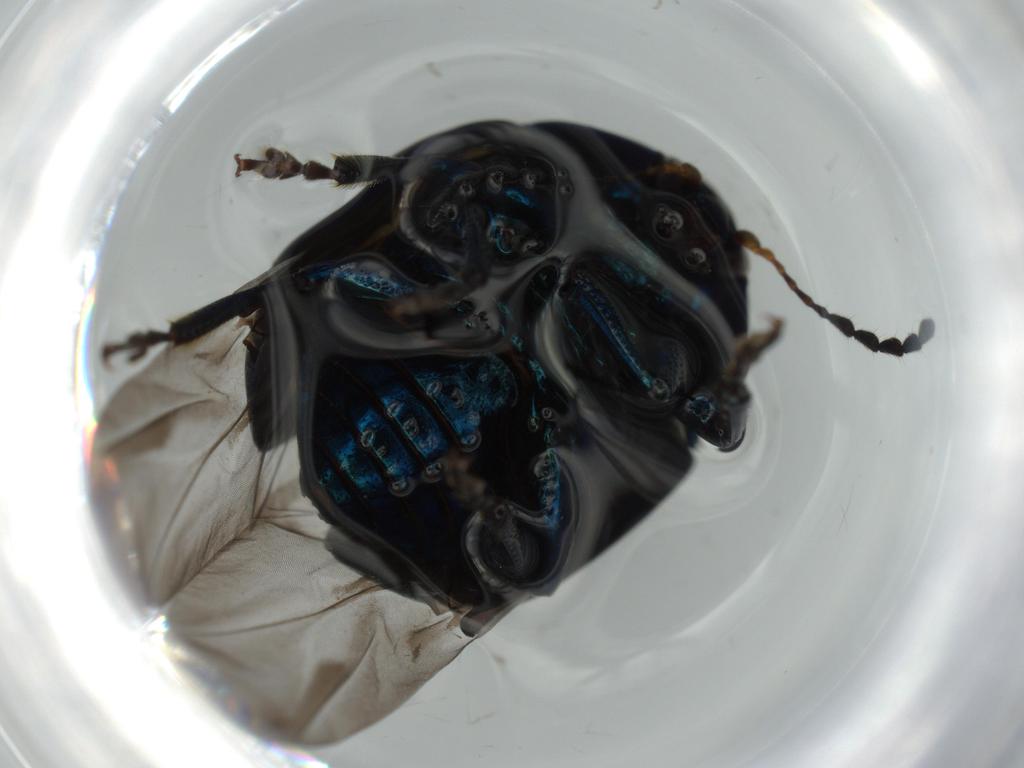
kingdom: Animalia
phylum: Arthropoda
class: Insecta
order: Coleoptera
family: Chrysomelidae
